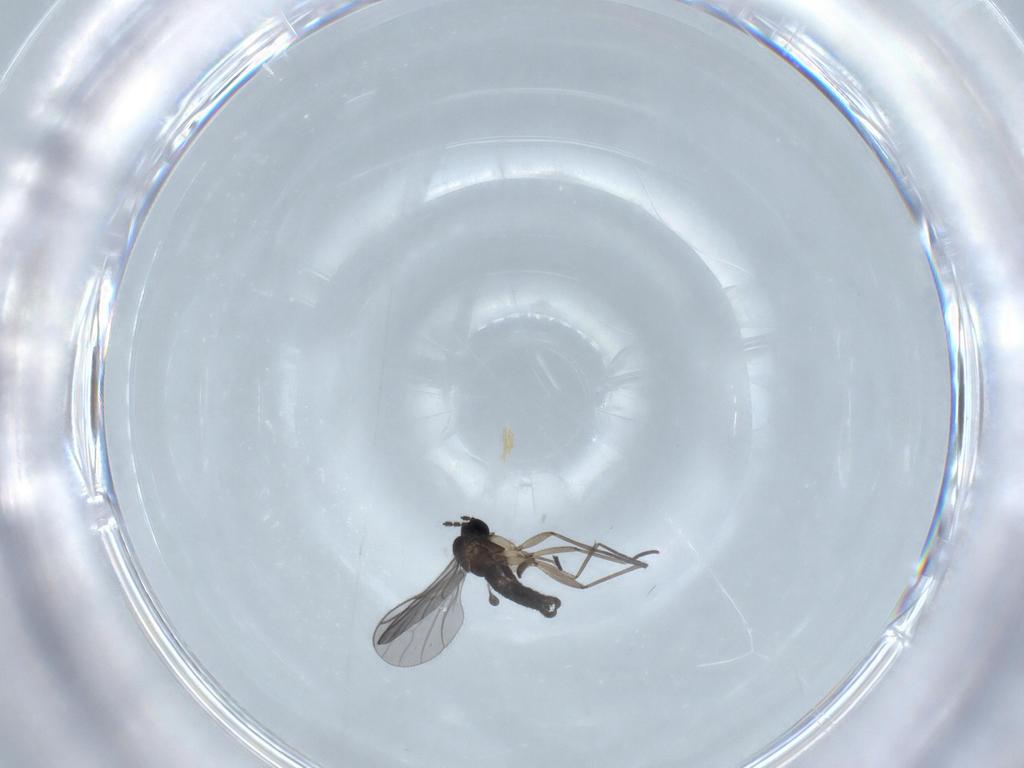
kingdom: Animalia
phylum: Arthropoda
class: Insecta
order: Diptera
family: Sciaridae
